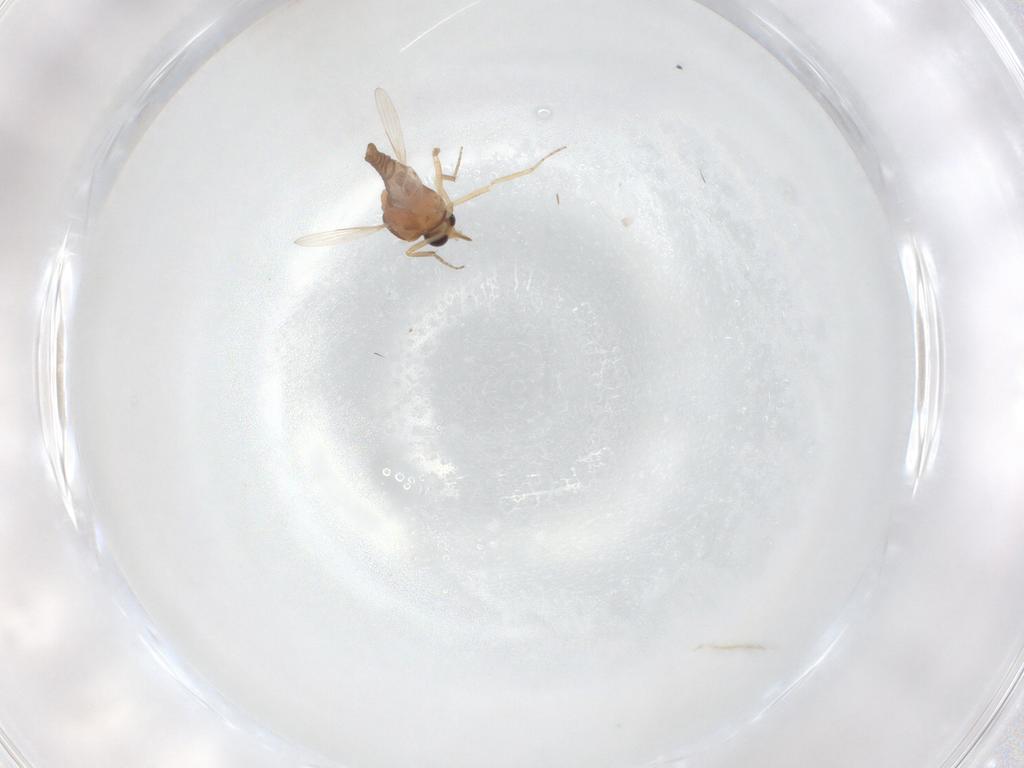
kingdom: Animalia
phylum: Arthropoda
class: Insecta
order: Diptera
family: Ceratopogonidae
